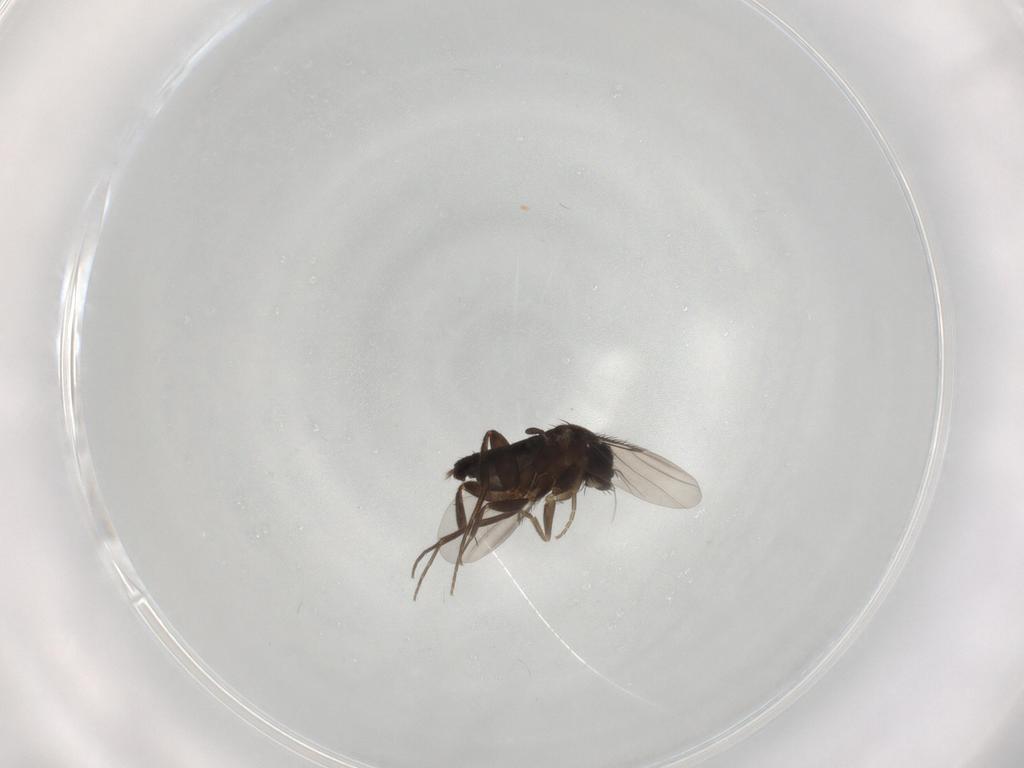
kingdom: Animalia
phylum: Arthropoda
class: Insecta
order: Diptera
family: Phoridae
